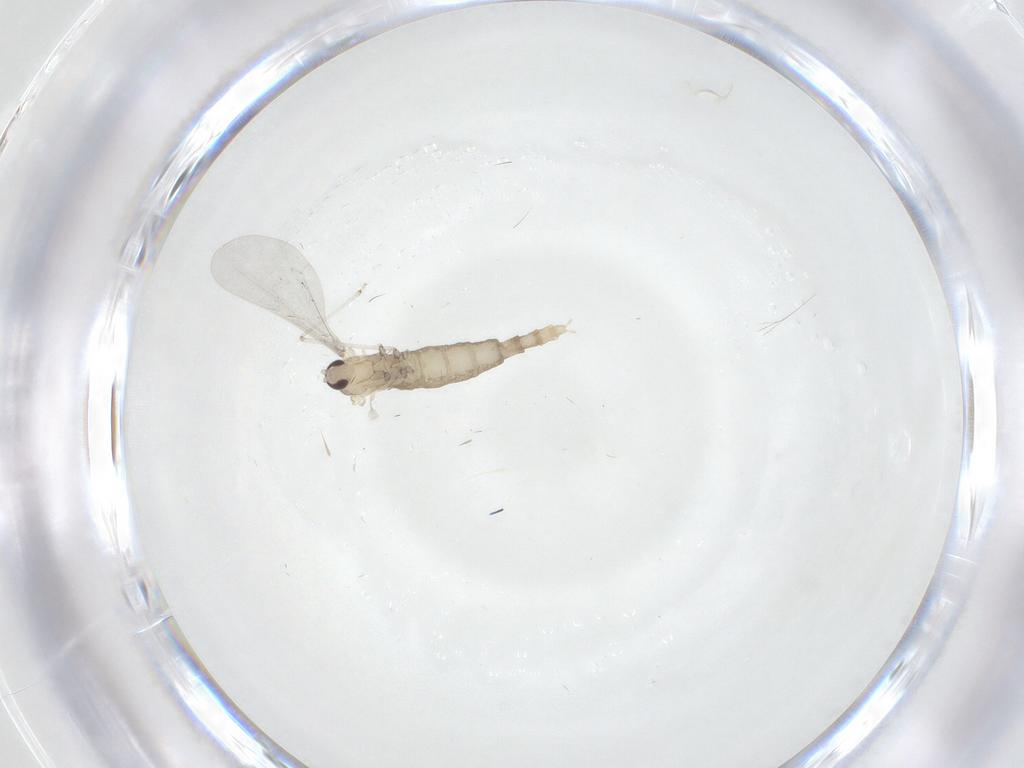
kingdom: Animalia
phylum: Arthropoda
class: Insecta
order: Diptera
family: Cecidomyiidae
